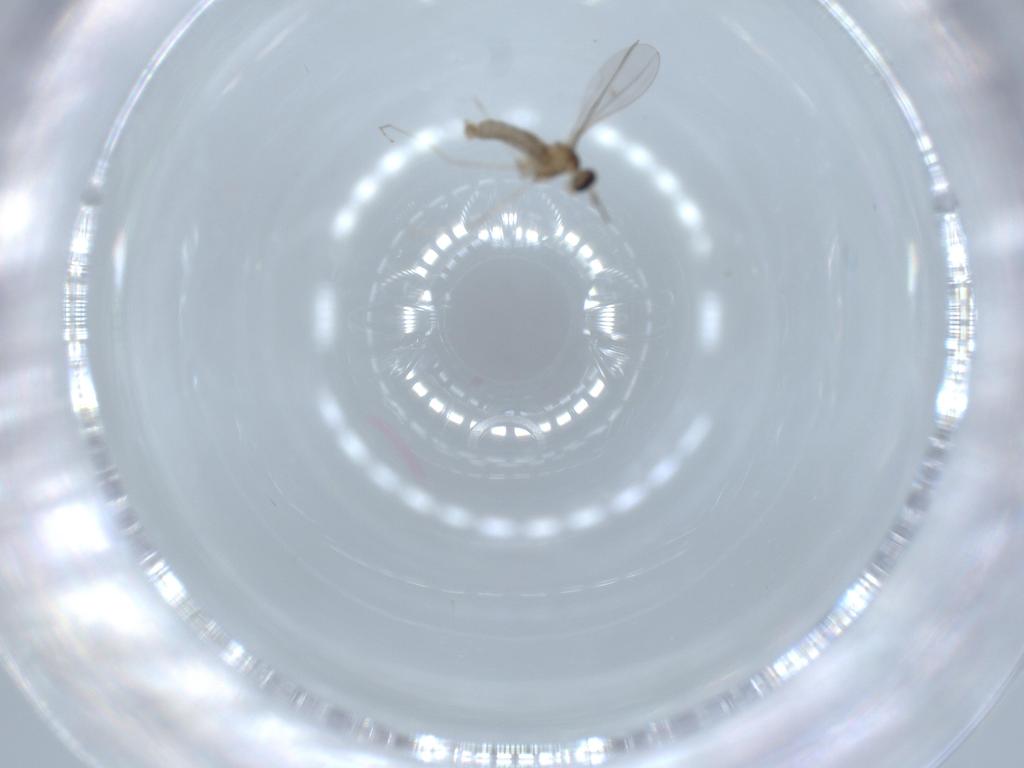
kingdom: Animalia
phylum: Arthropoda
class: Insecta
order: Diptera
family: Cecidomyiidae
